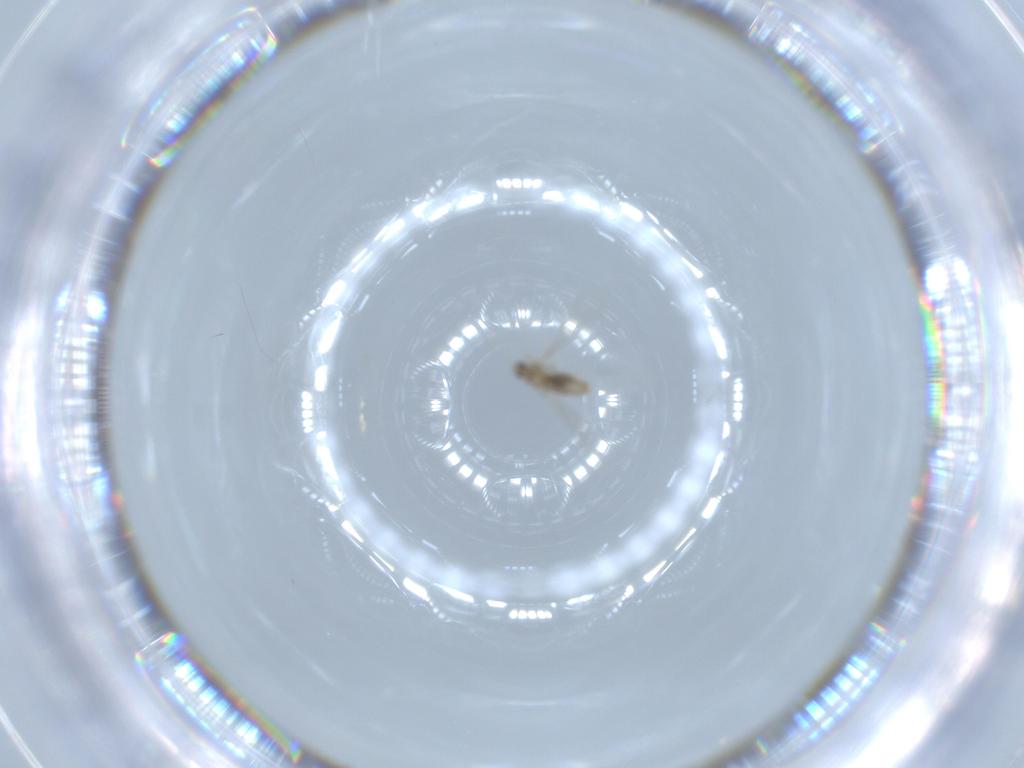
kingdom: Animalia
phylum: Arthropoda
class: Insecta
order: Diptera
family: Cecidomyiidae
